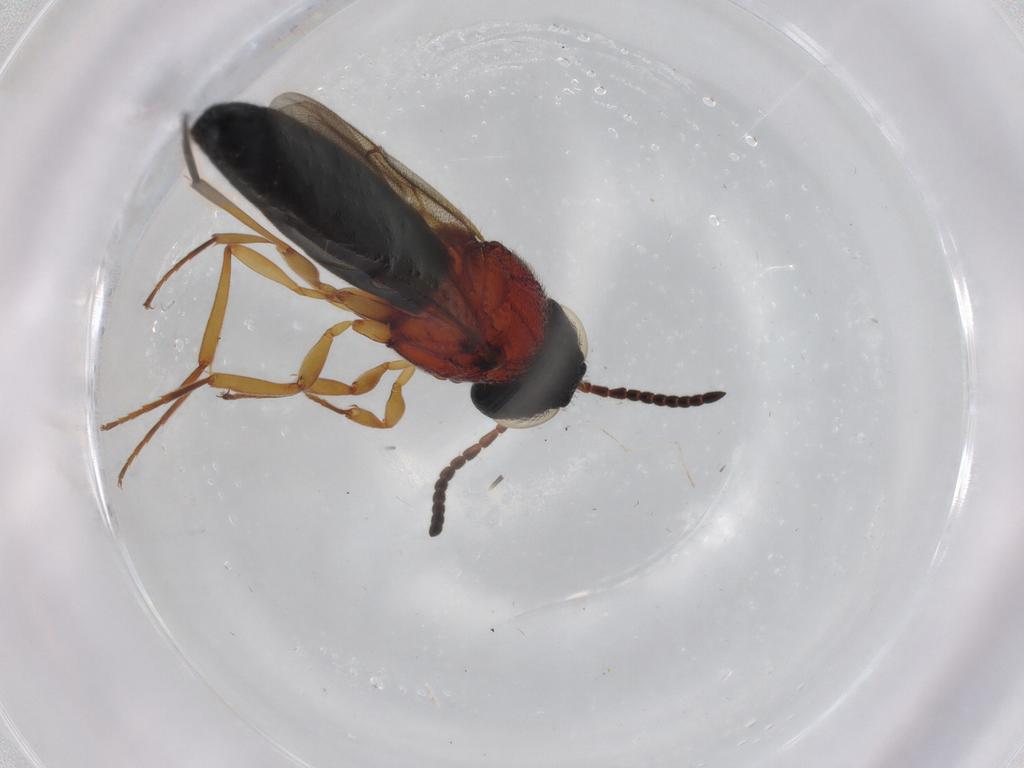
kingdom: Animalia
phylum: Arthropoda
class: Insecta
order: Hymenoptera
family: Scelionidae
